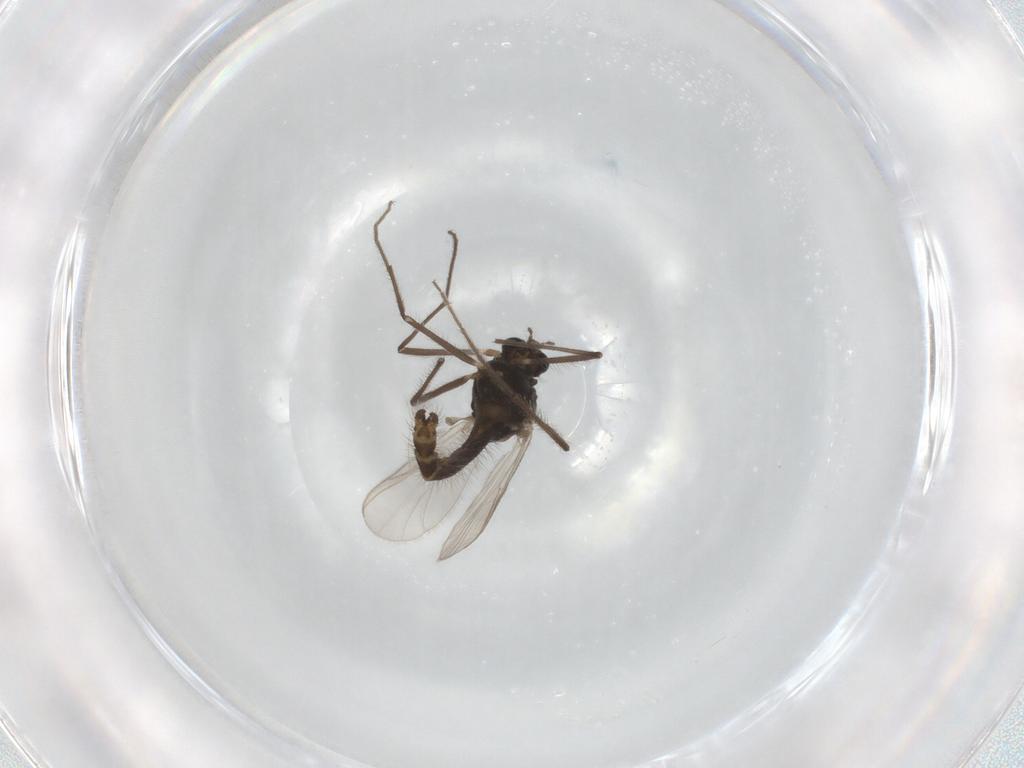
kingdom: Animalia
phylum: Arthropoda
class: Insecta
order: Diptera
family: Chironomidae
